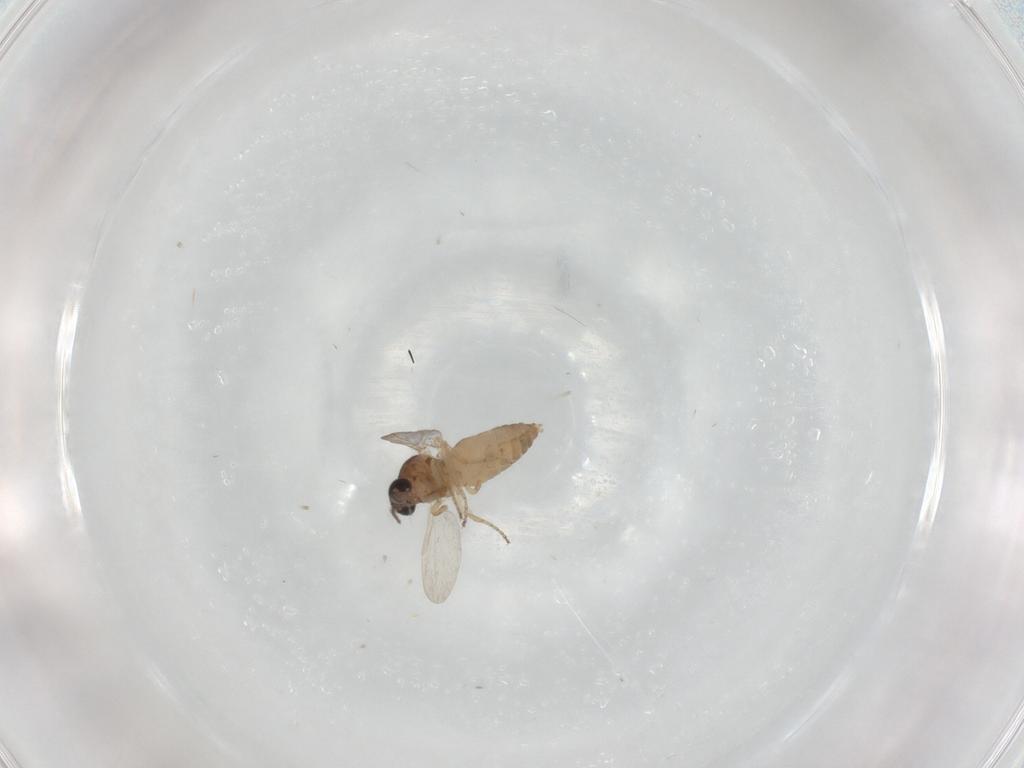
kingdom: Animalia
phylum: Arthropoda
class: Insecta
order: Diptera
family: Ceratopogonidae
